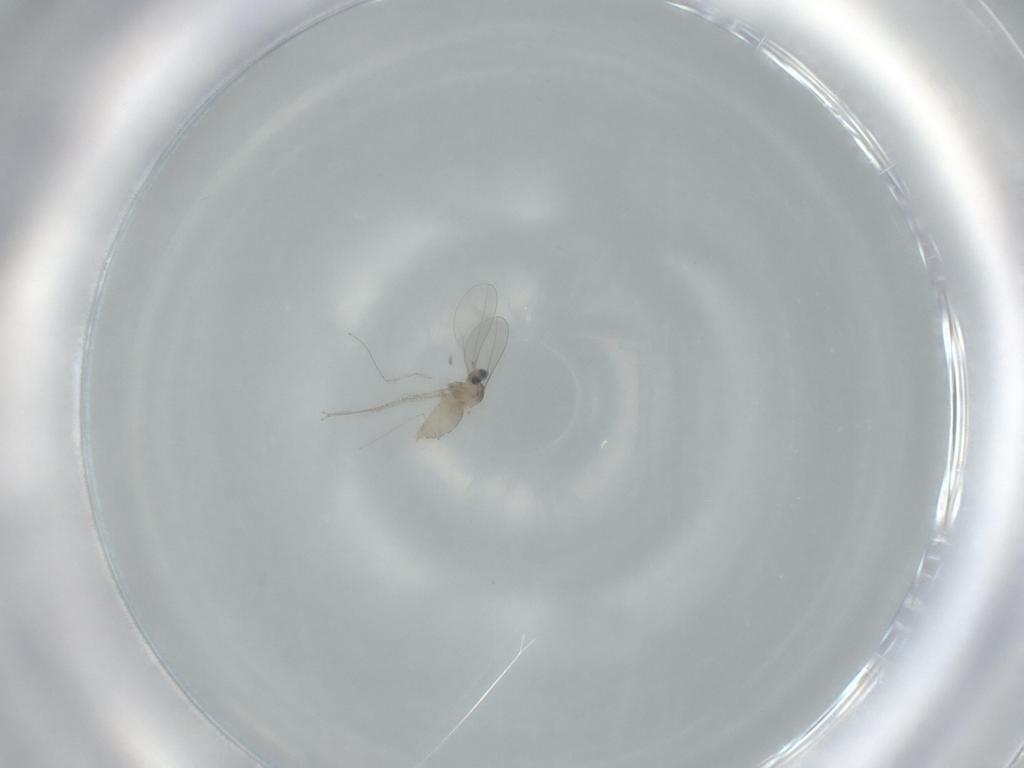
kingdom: Animalia
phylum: Arthropoda
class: Insecta
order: Diptera
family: Cecidomyiidae
